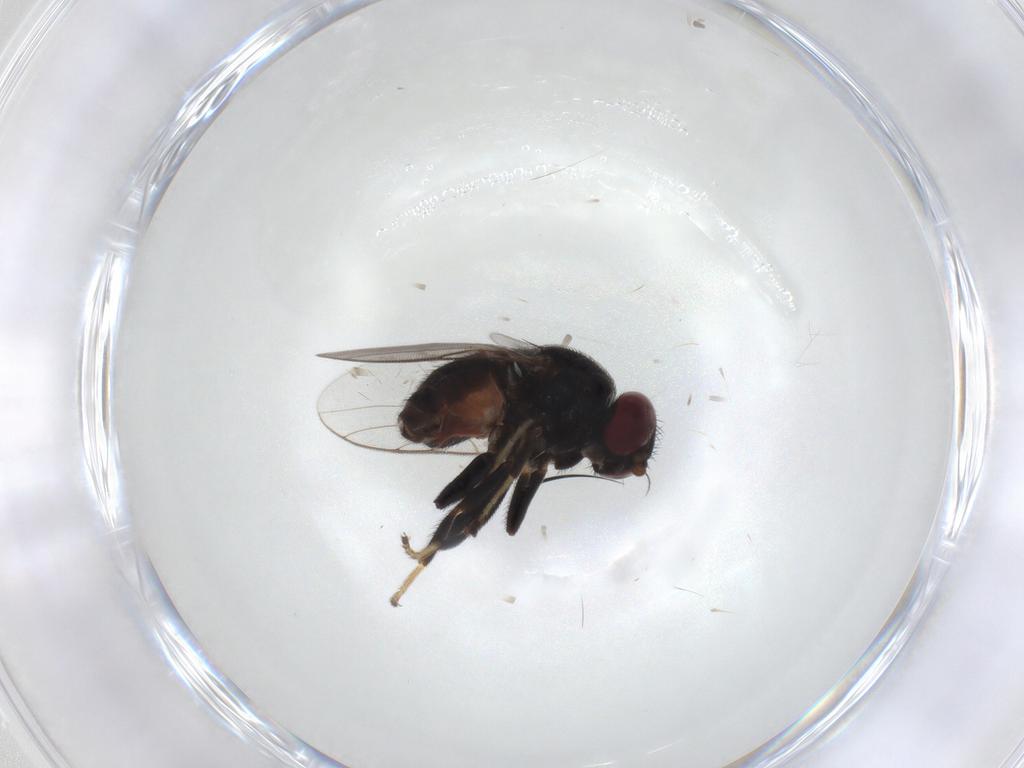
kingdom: Animalia
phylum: Arthropoda
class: Insecta
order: Diptera
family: Chloropidae
